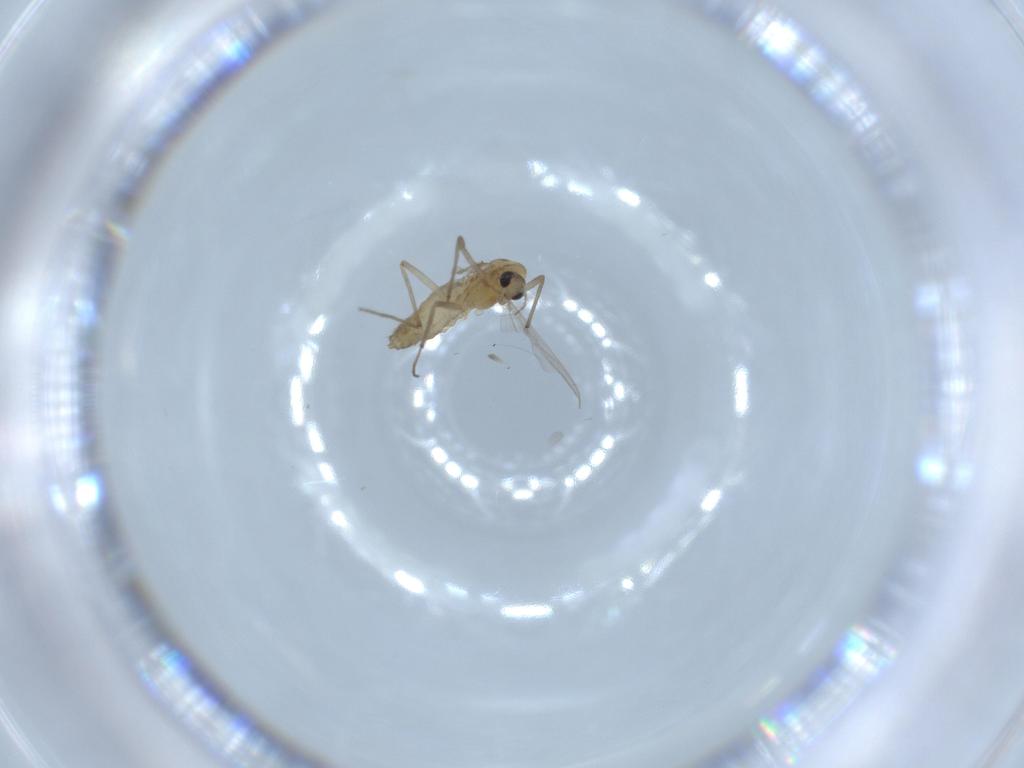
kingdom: Animalia
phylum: Arthropoda
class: Insecta
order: Diptera
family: Chironomidae
